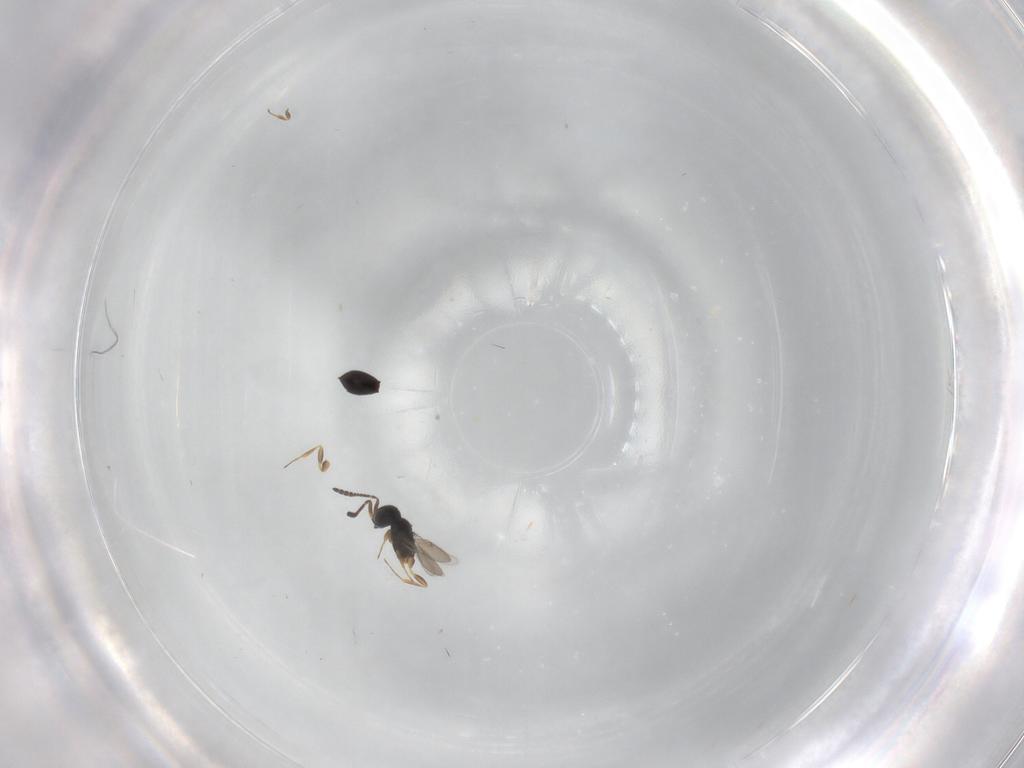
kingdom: Animalia
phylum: Arthropoda
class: Insecta
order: Hymenoptera
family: Scelionidae
